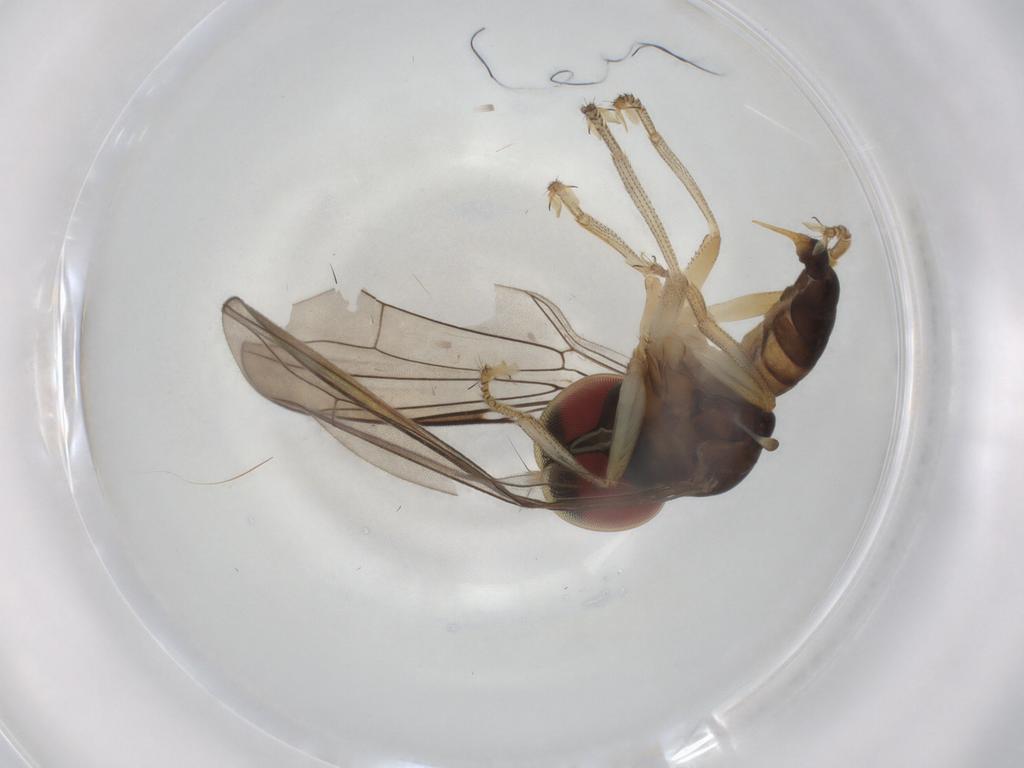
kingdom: Animalia
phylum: Arthropoda
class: Insecta
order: Diptera
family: Pipunculidae
